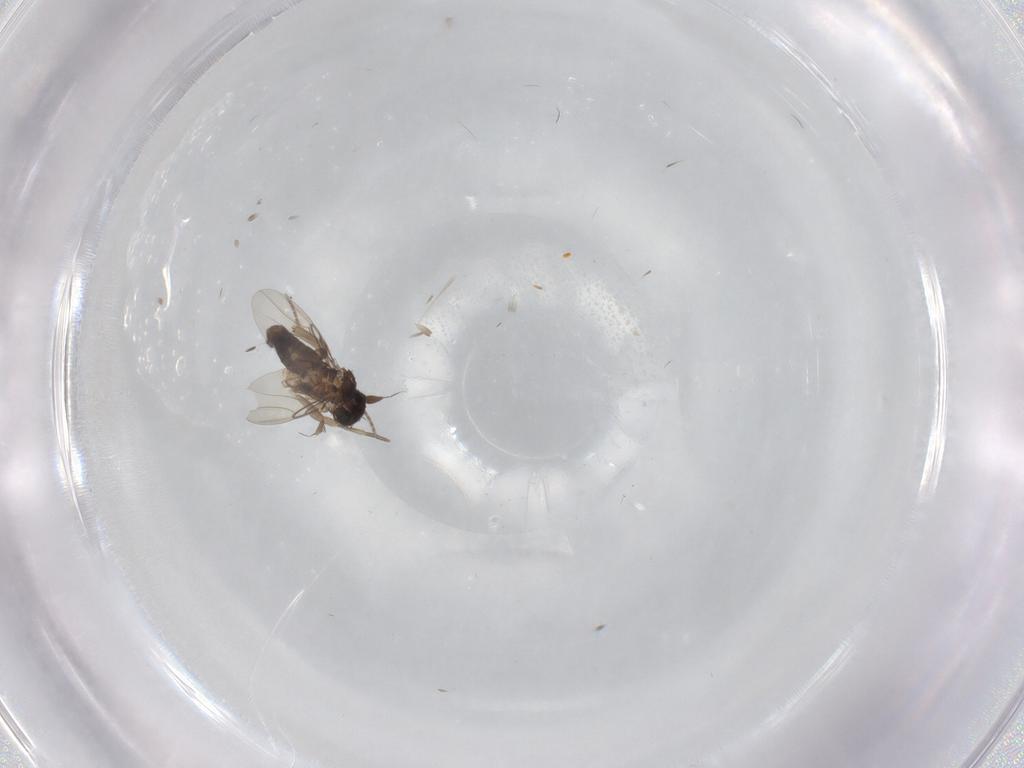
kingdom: Animalia
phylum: Arthropoda
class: Insecta
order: Diptera
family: Phoridae
